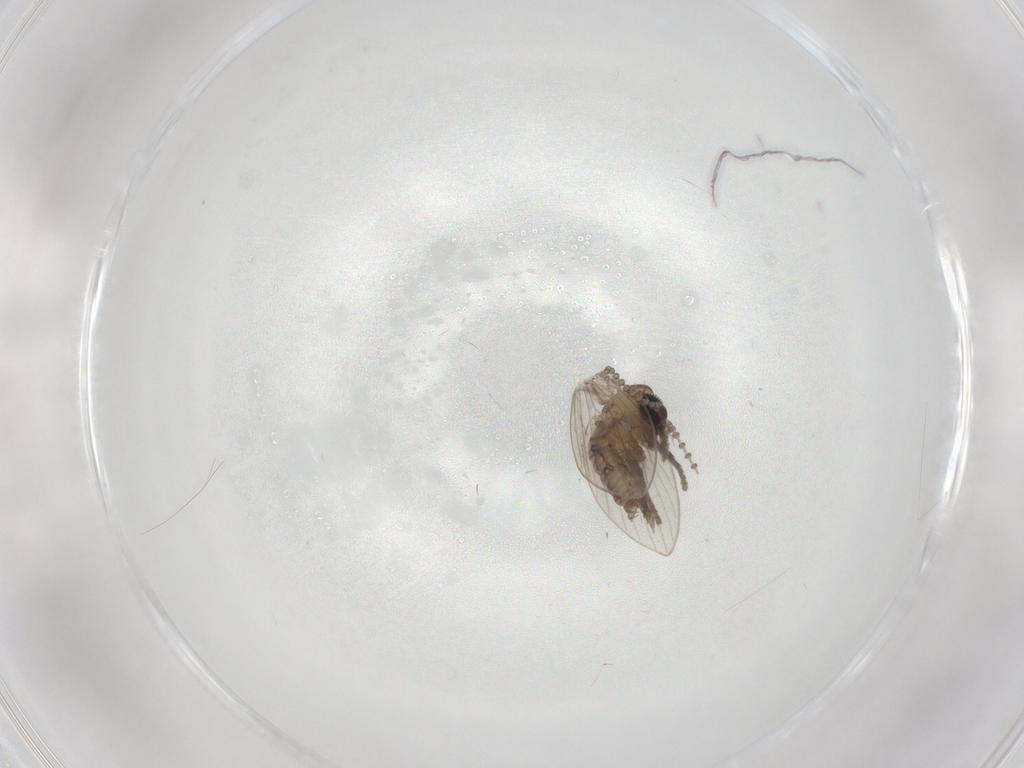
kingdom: Animalia
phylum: Arthropoda
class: Insecta
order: Diptera
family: Psychodidae
